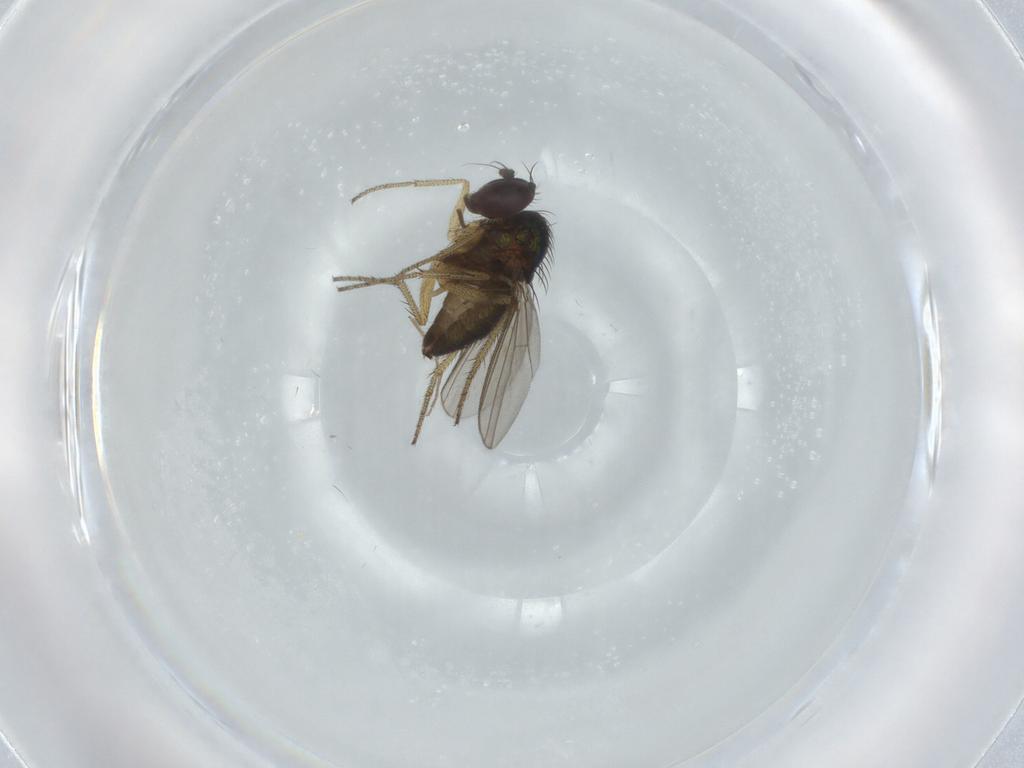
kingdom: Animalia
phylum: Arthropoda
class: Insecta
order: Diptera
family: Chironomidae
